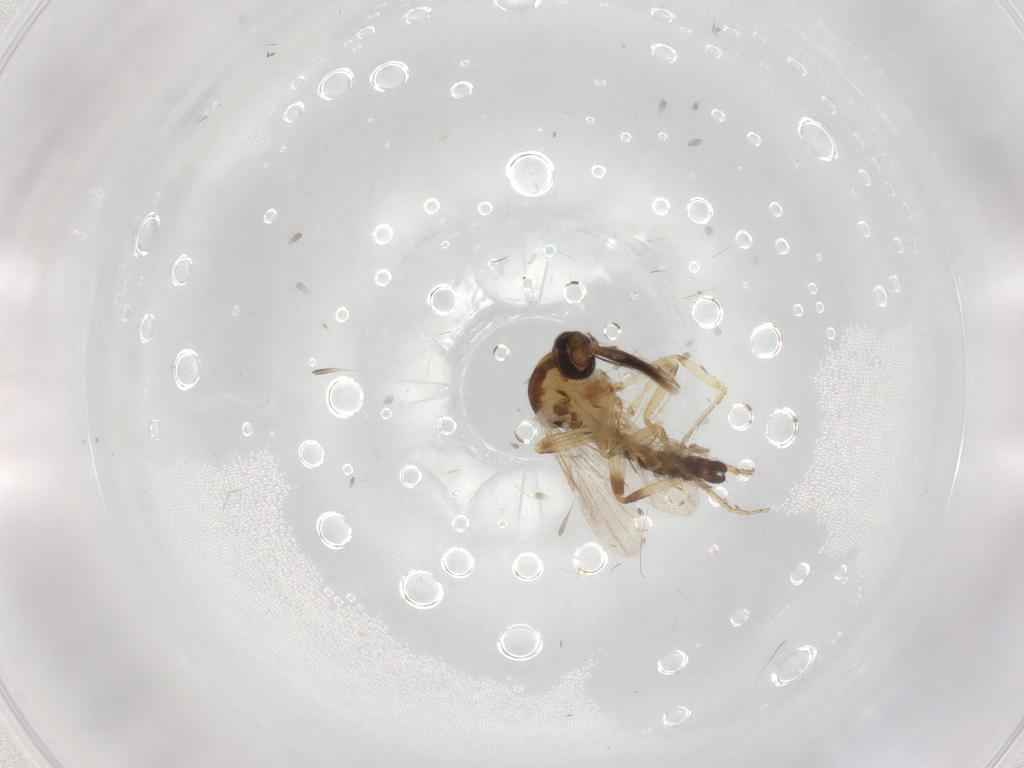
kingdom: Animalia
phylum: Arthropoda
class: Insecta
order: Diptera
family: Ceratopogonidae
